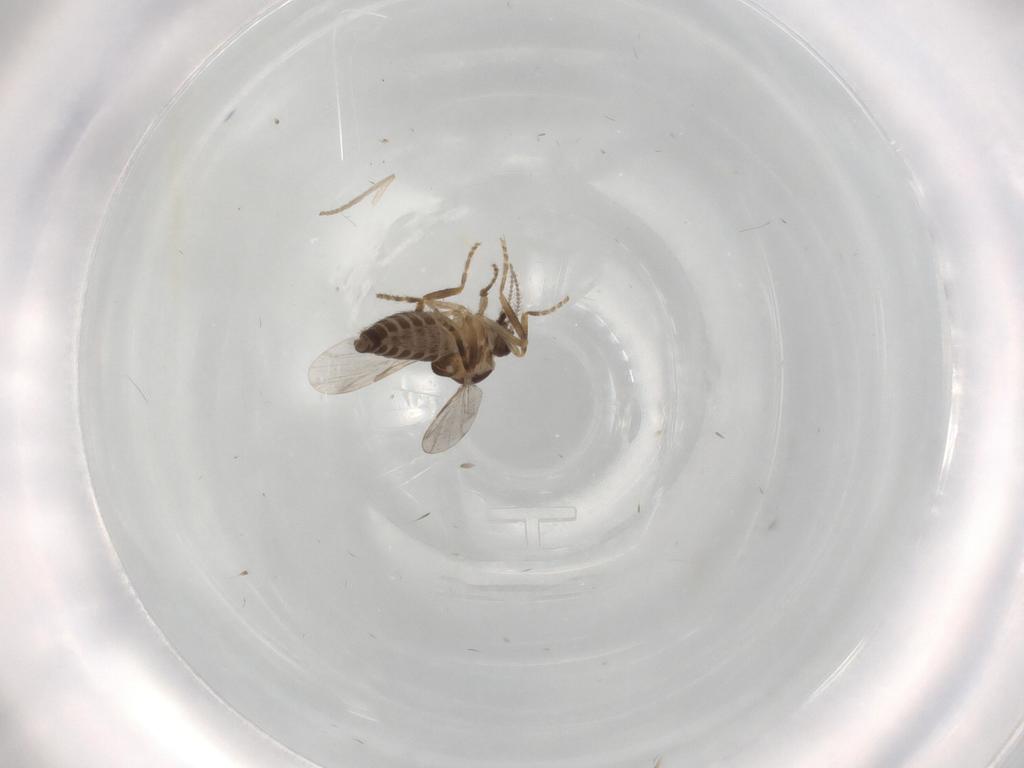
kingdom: Animalia
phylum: Arthropoda
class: Insecta
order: Diptera
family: Ceratopogonidae
